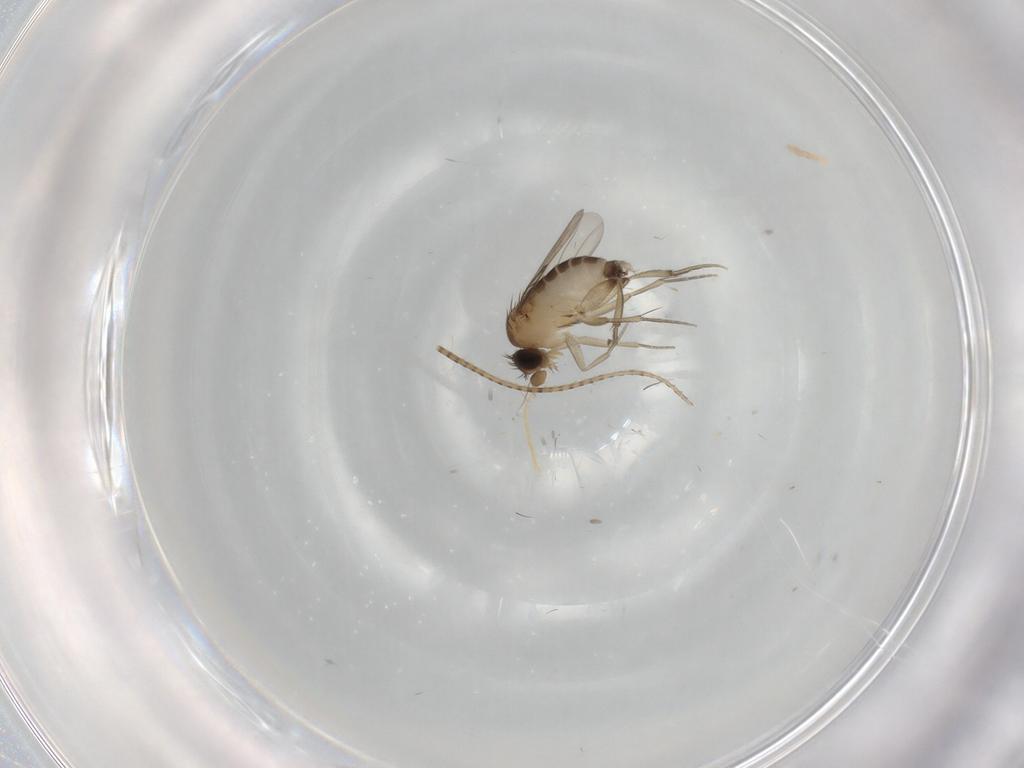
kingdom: Animalia
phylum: Arthropoda
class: Insecta
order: Diptera
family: Phoridae
